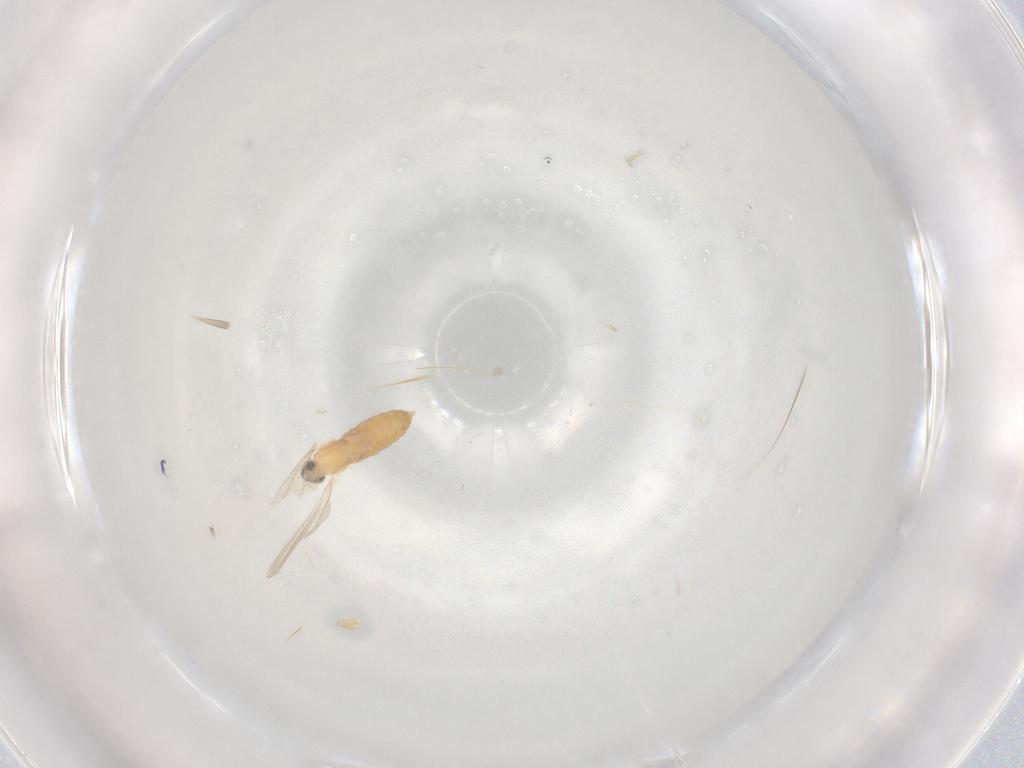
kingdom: Animalia
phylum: Arthropoda
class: Insecta
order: Diptera
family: Cecidomyiidae
